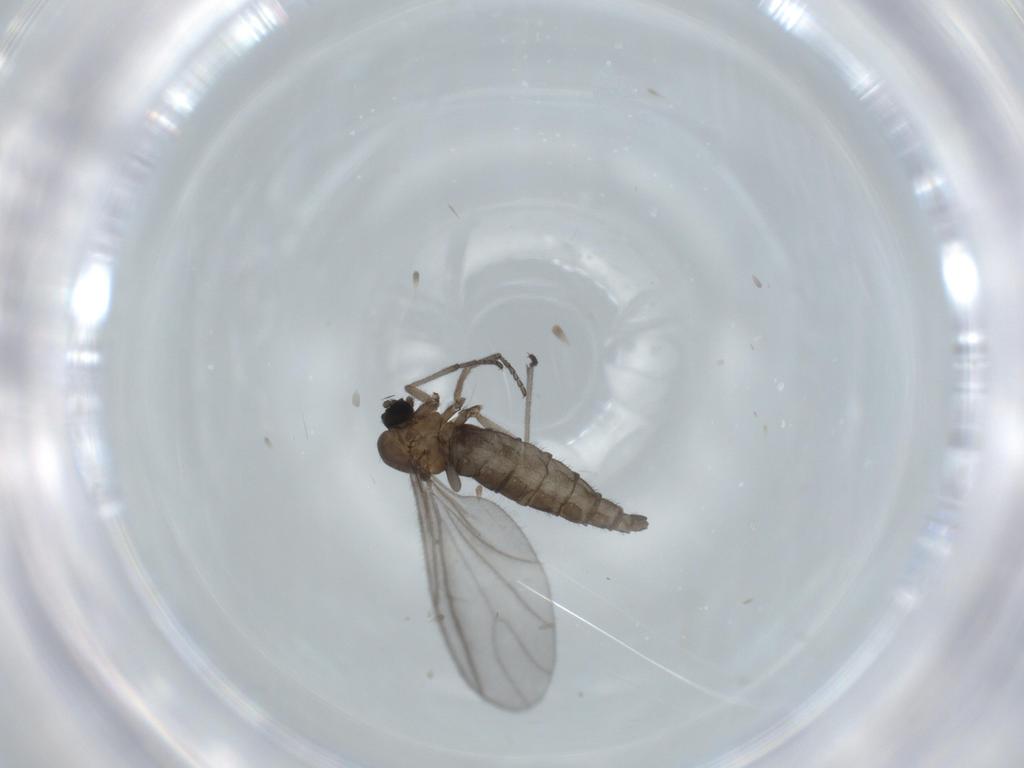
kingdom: Animalia
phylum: Arthropoda
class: Insecta
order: Diptera
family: Sciaridae
